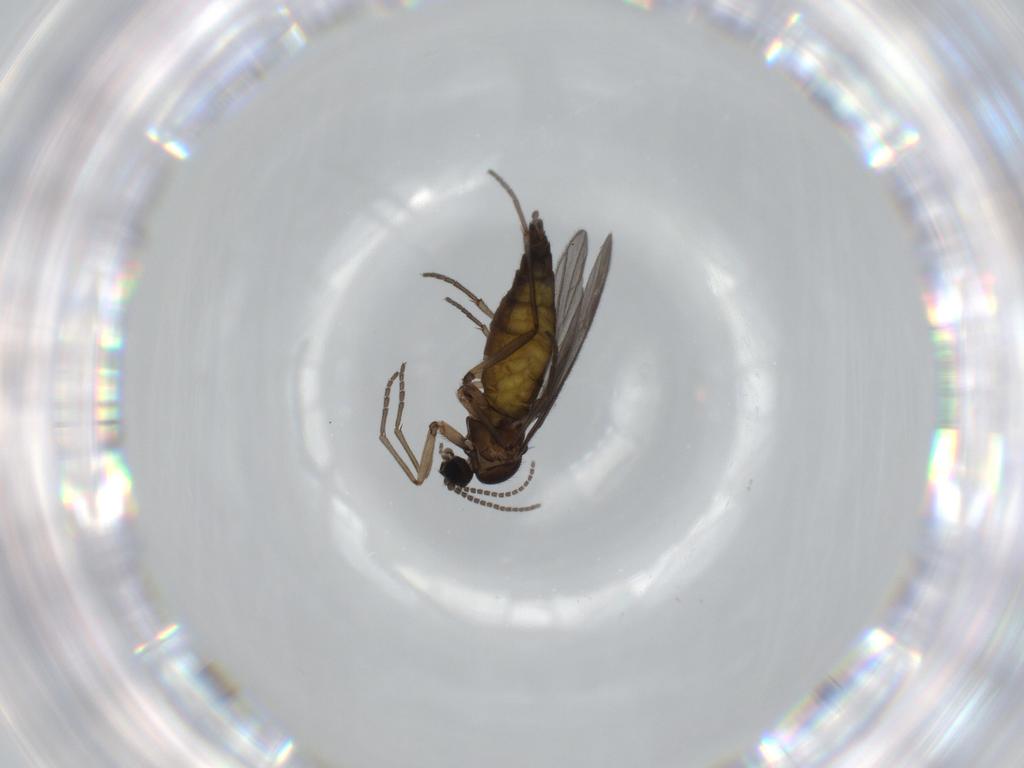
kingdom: Animalia
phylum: Arthropoda
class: Insecta
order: Diptera
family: Sciaridae
